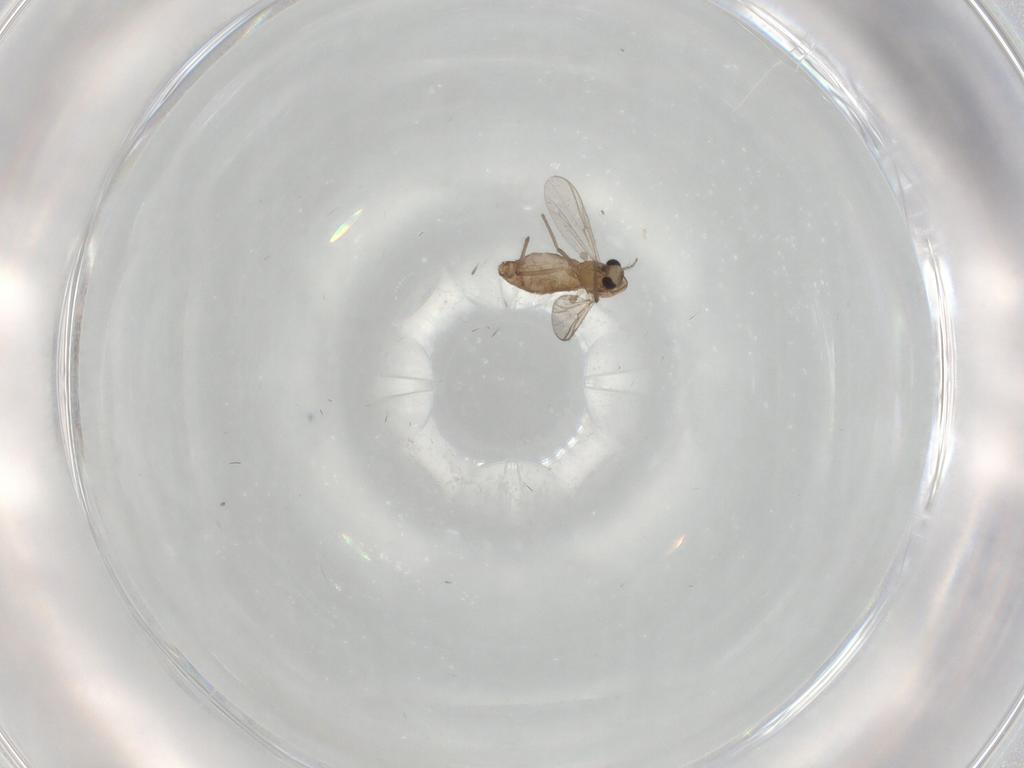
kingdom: Animalia
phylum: Arthropoda
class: Insecta
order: Diptera
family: Chironomidae
